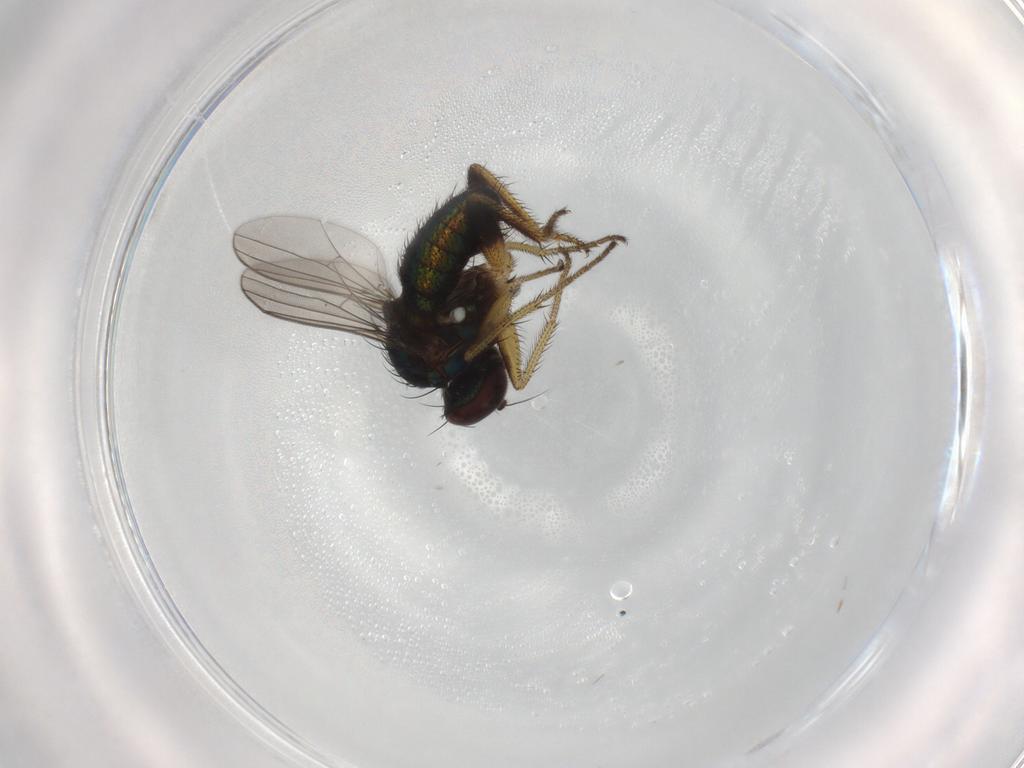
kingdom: Animalia
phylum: Arthropoda
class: Insecta
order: Diptera
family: Dolichopodidae
